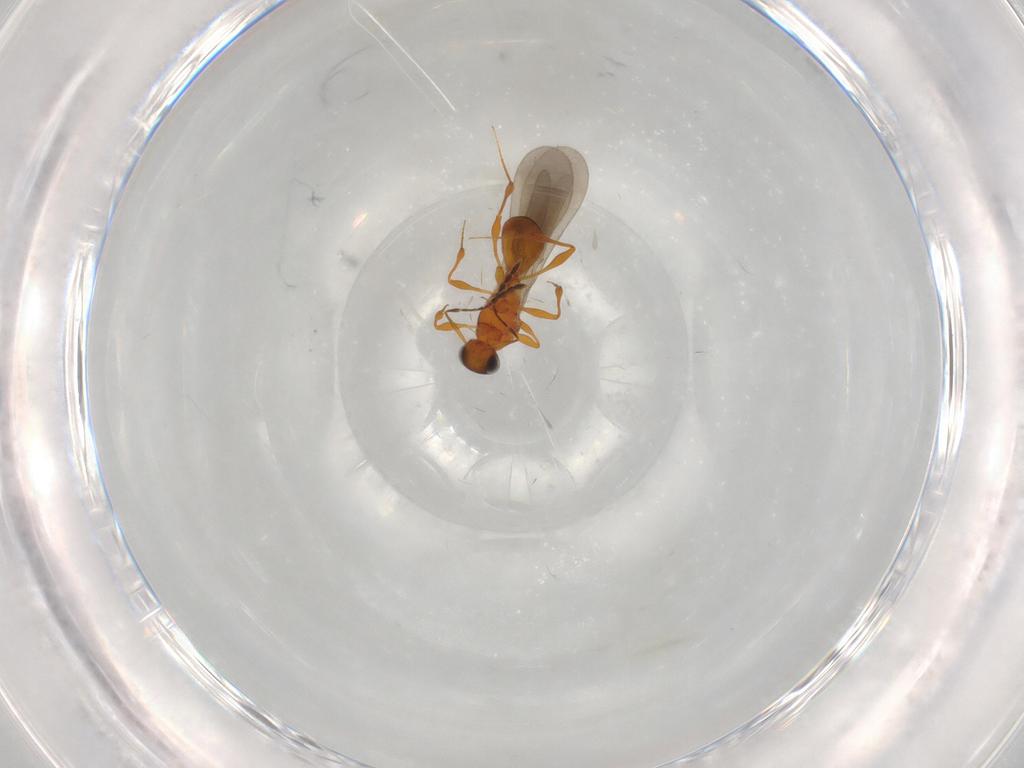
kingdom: Animalia
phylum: Arthropoda
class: Insecta
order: Hymenoptera
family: Platygastridae
